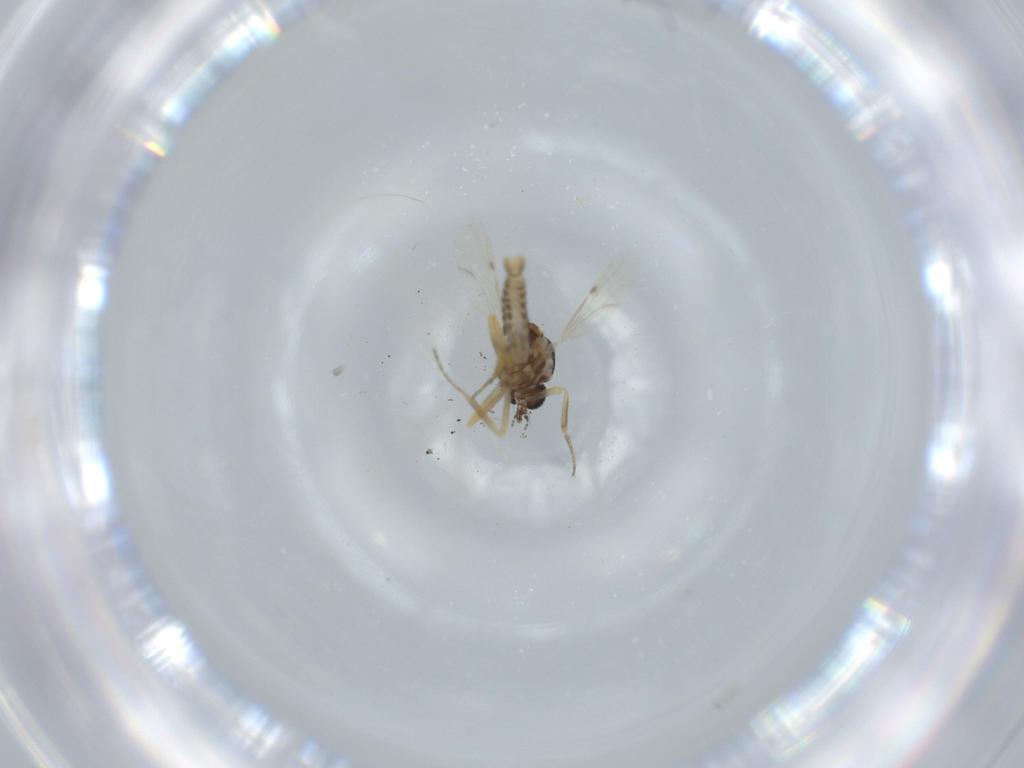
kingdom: Animalia
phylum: Arthropoda
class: Insecta
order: Diptera
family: Ceratopogonidae
